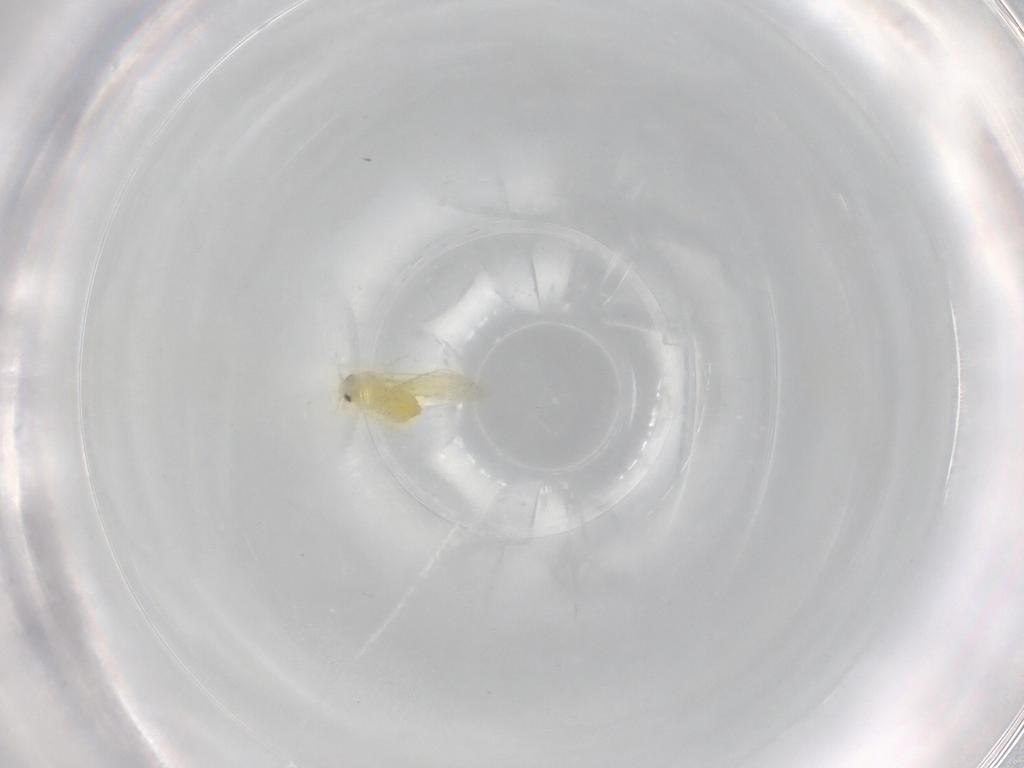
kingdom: Animalia
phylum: Arthropoda
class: Insecta
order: Hemiptera
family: Aleyrodidae
